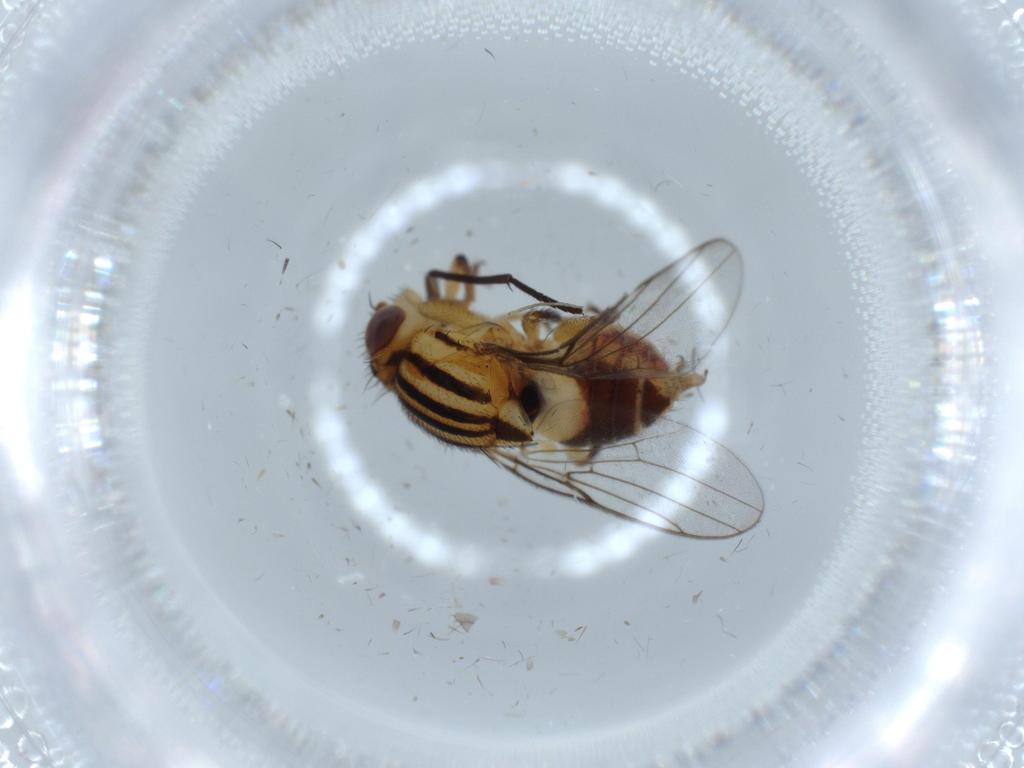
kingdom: Animalia
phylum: Arthropoda
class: Insecta
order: Diptera
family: Chloropidae
